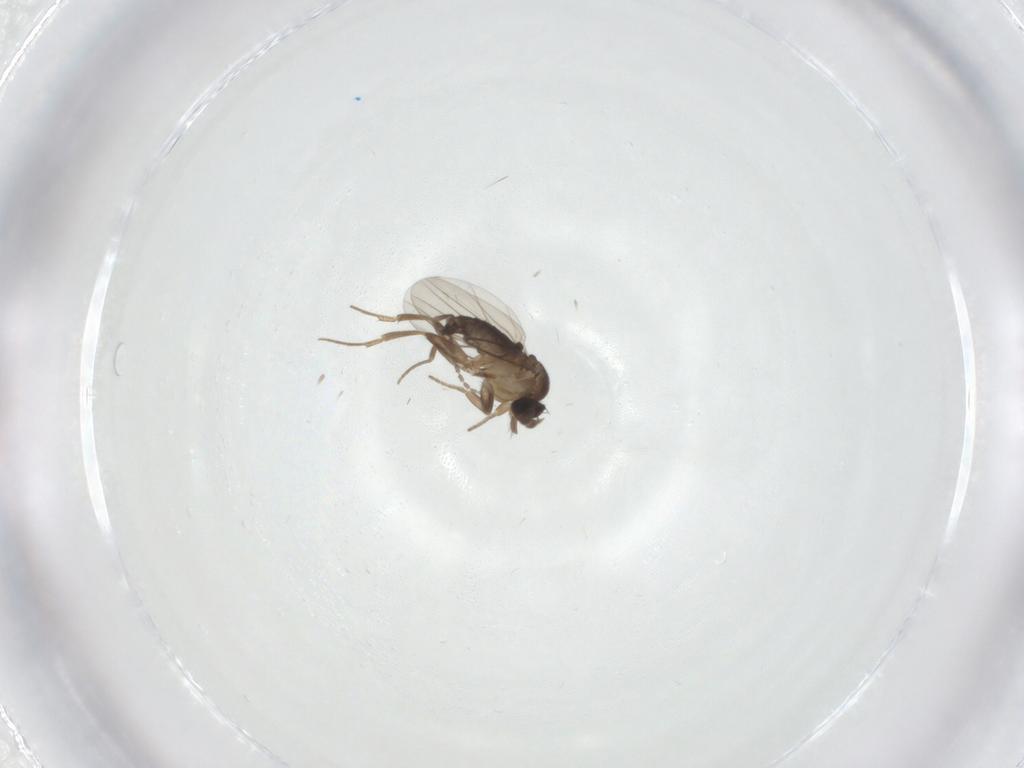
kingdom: Animalia
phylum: Arthropoda
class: Insecta
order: Diptera
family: Phoridae
